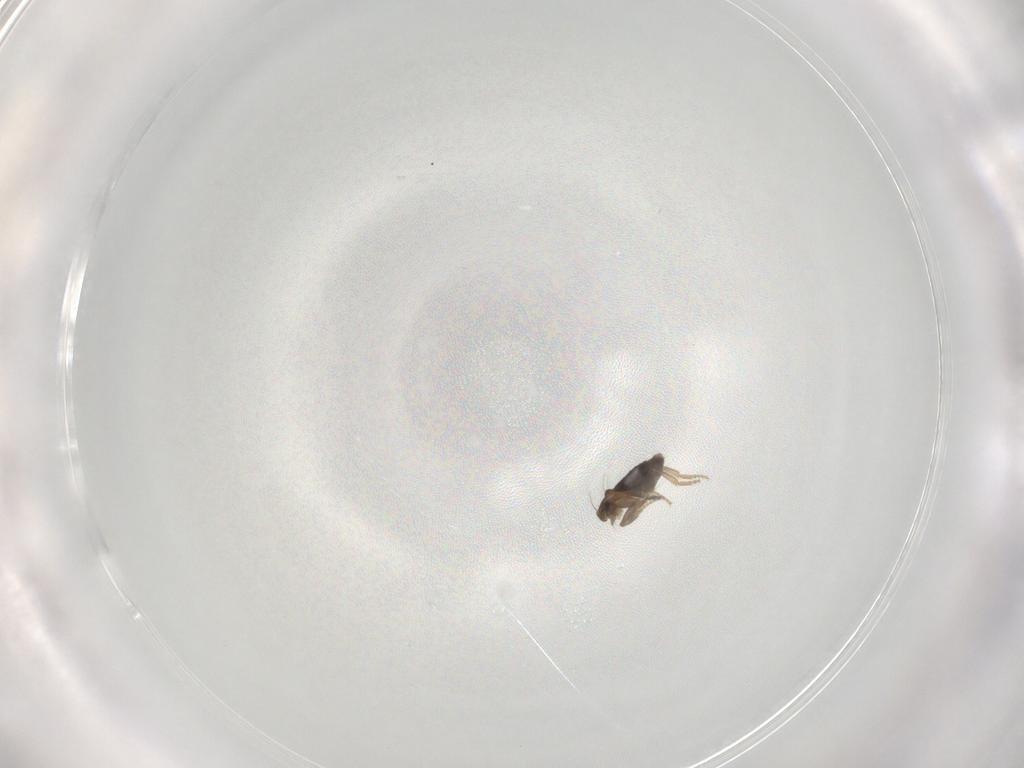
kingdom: Animalia
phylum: Arthropoda
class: Insecta
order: Diptera
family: Phoridae
